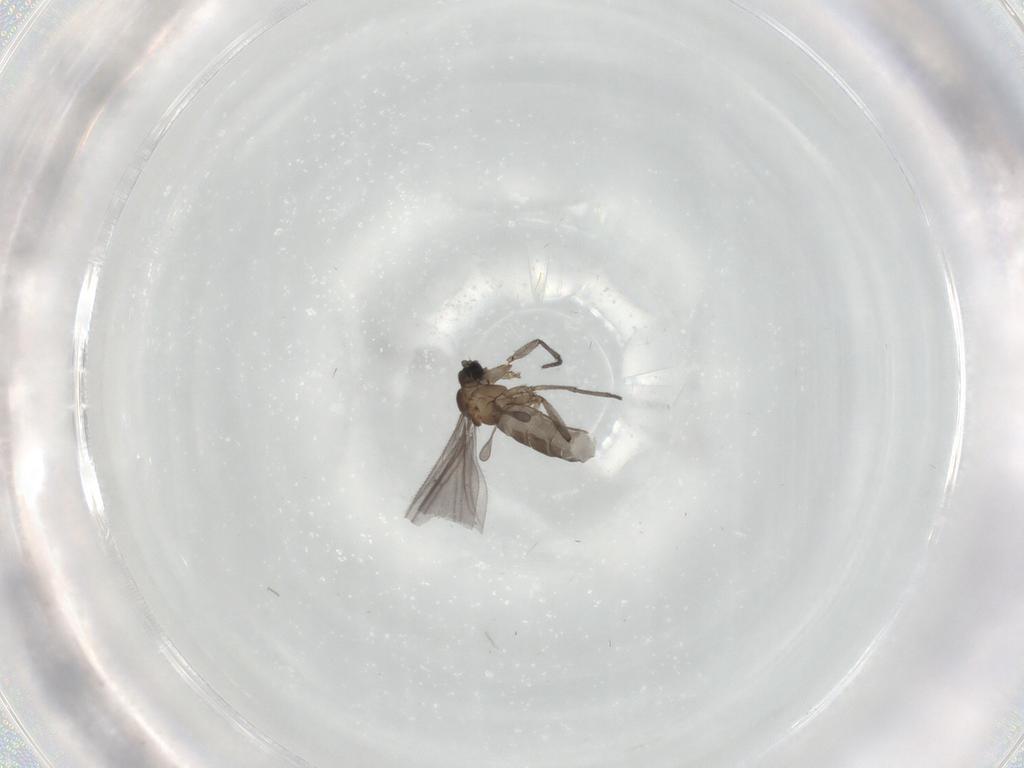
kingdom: Animalia
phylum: Arthropoda
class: Insecta
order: Diptera
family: Sciaridae
